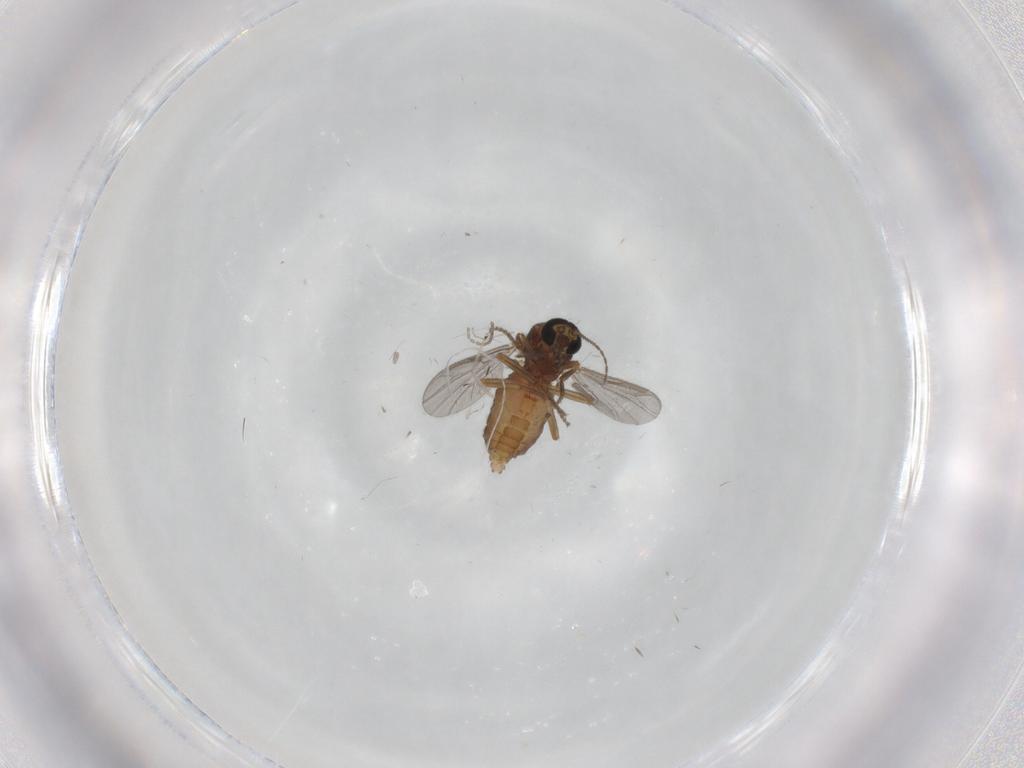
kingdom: Animalia
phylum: Arthropoda
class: Insecta
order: Diptera
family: Ceratopogonidae
